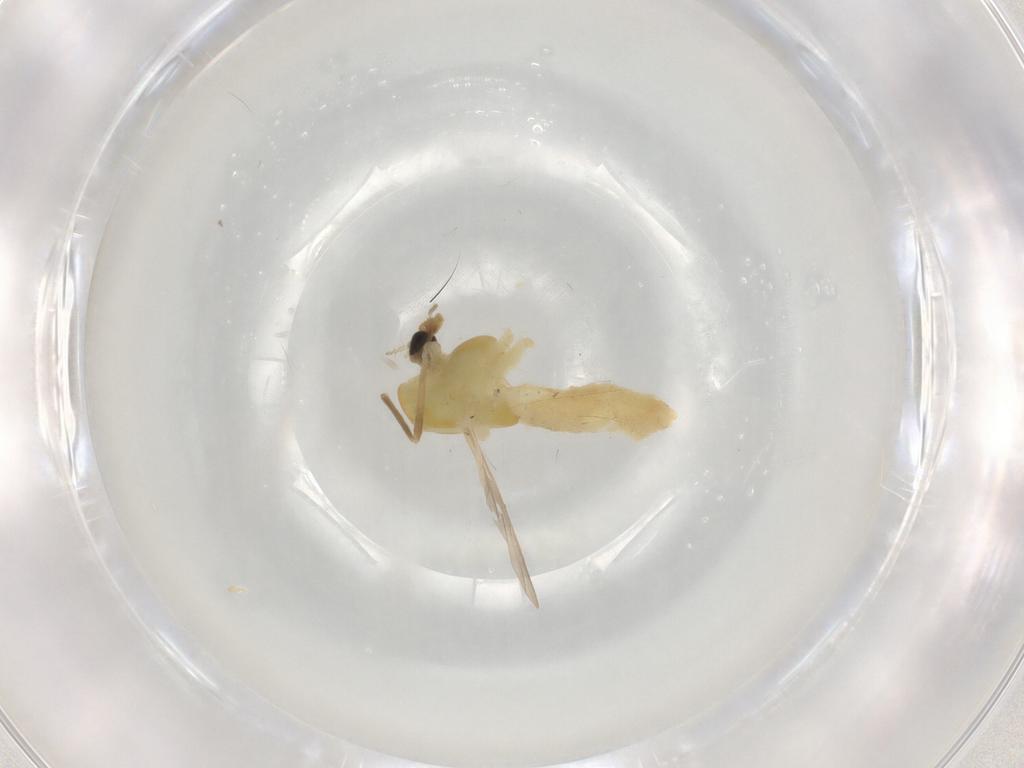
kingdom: Animalia
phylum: Arthropoda
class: Insecta
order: Diptera
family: Chironomidae
